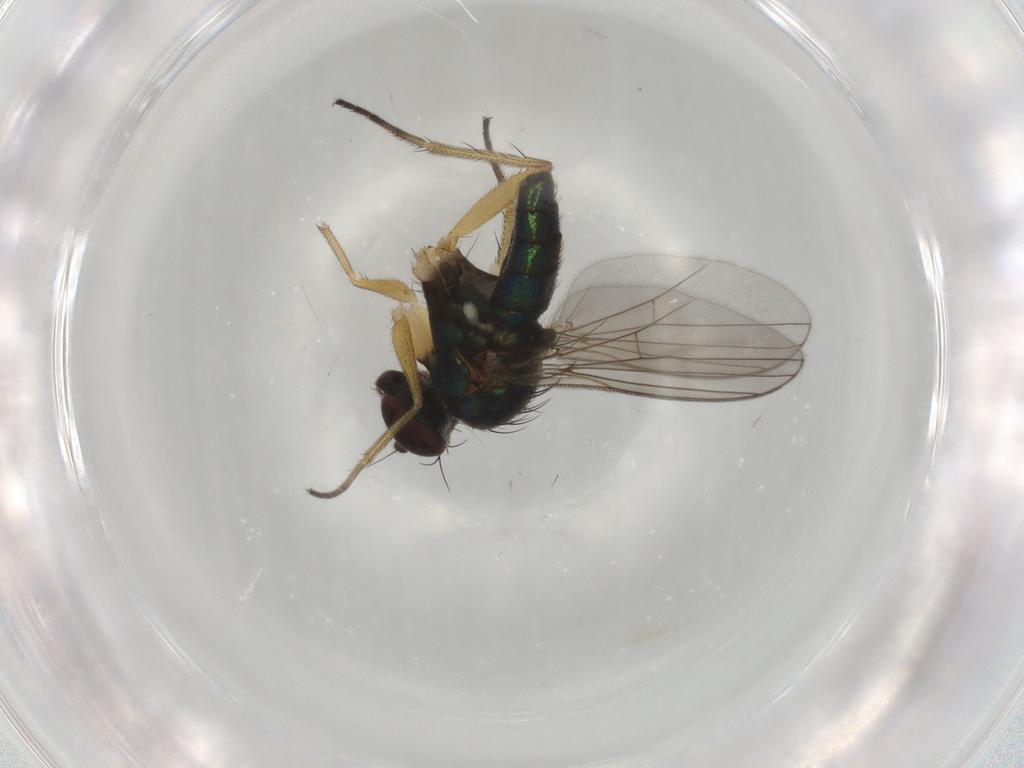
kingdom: Animalia
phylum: Arthropoda
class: Insecta
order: Diptera
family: Dolichopodidae
